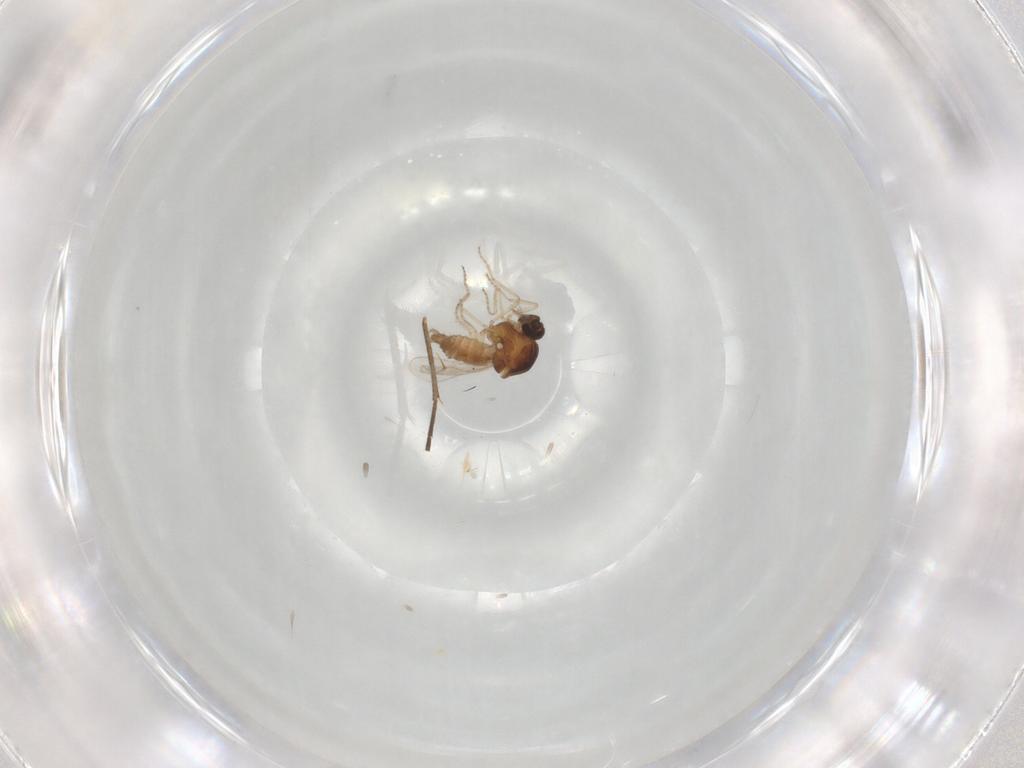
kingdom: Animalia
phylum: Arthropoda
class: Insecta
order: Diptera
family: Ceratopogonidae
